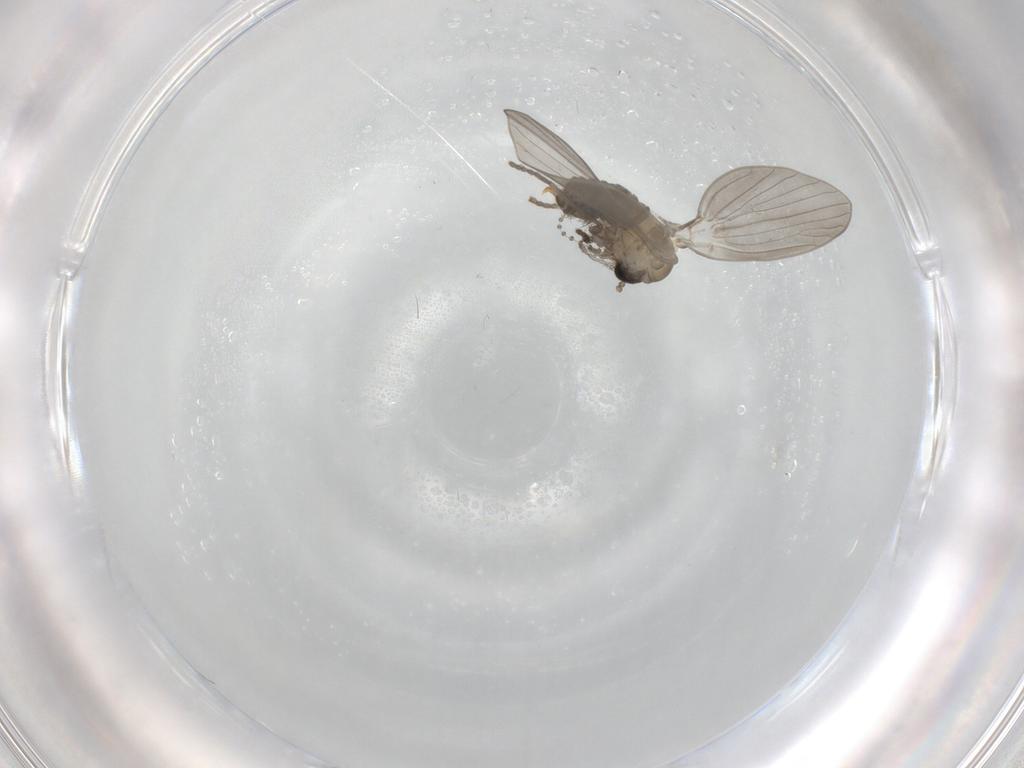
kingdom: Animalia
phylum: Arthropoda
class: Insecta
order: Diptera
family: Psychodidae
